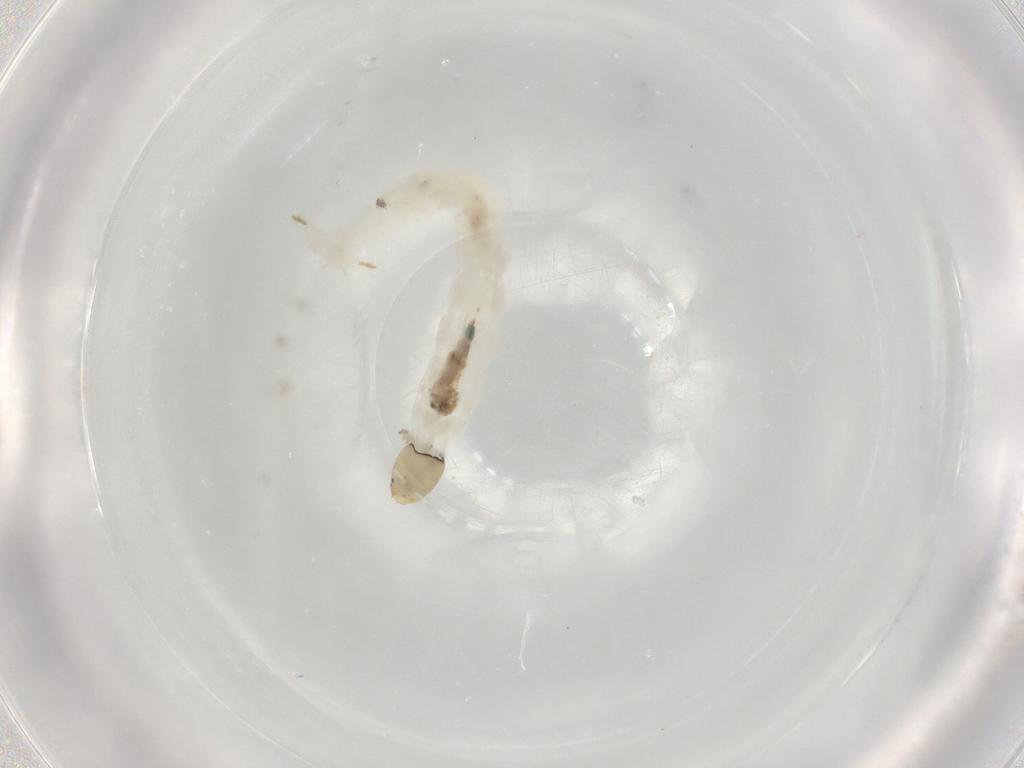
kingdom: Animalia
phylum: Arthropoda
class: Insecta
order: Diptera
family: Chironomidae
